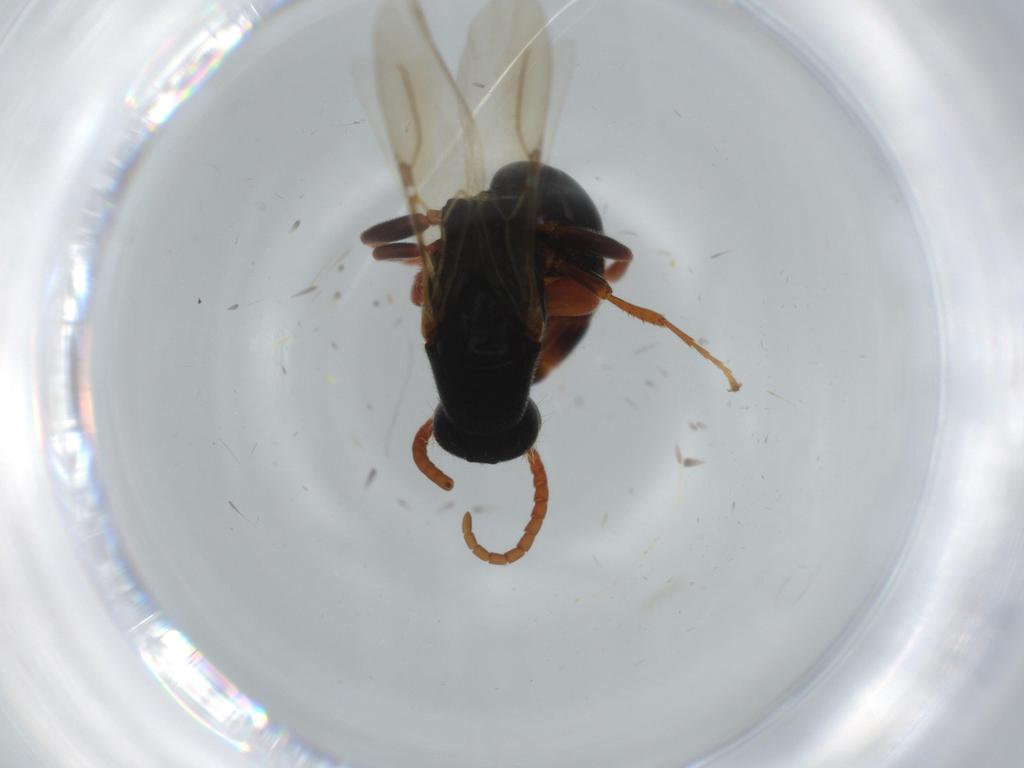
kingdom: Animalia
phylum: Arthropoda
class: Insecta
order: Hymenoptera
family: Bethylidae
